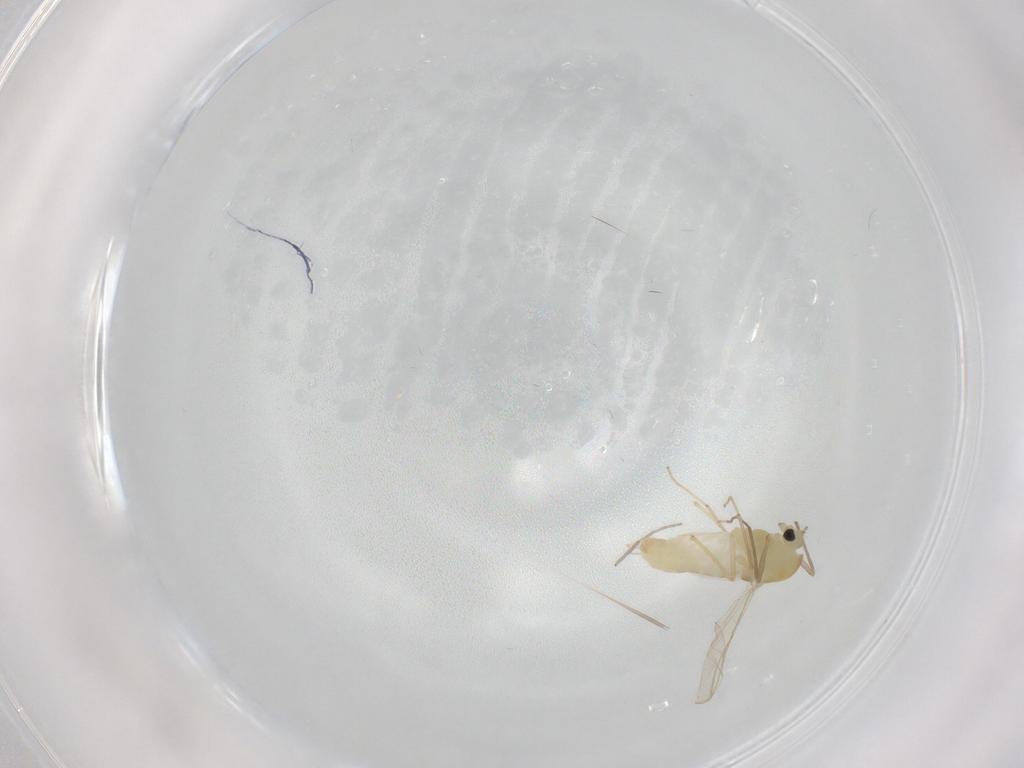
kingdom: Animalia
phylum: Arthropoda
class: Insecta
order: Diptera
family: Chironomidae
